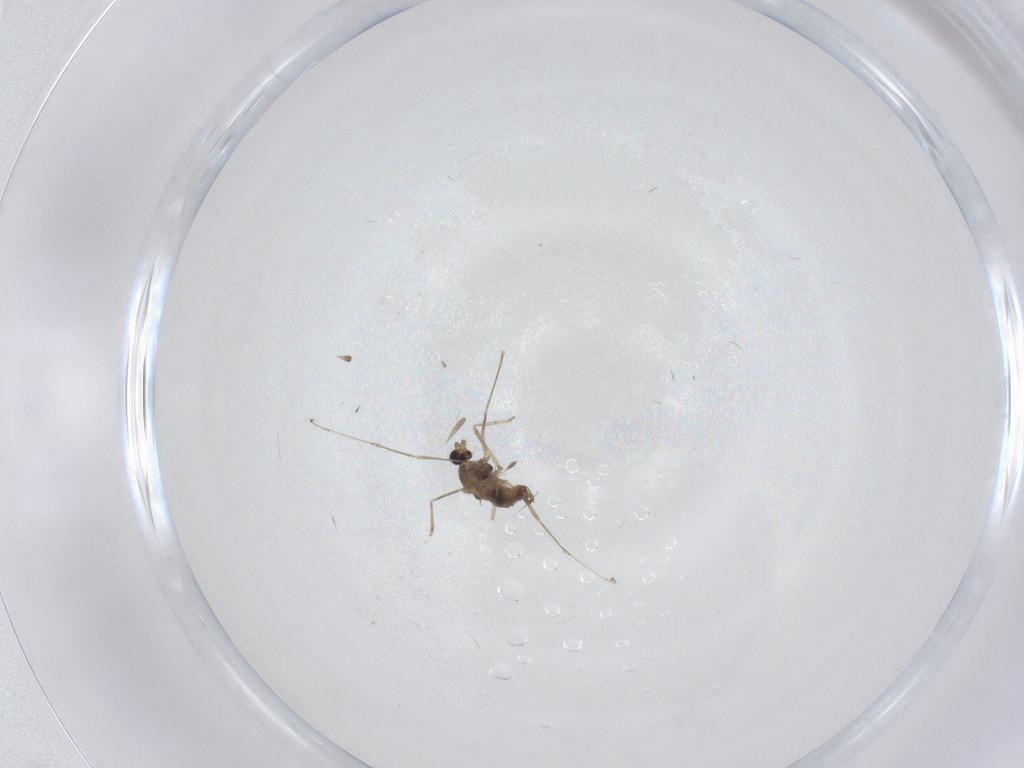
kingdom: Animalia
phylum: Arthropoda
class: Insecta
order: Diptera
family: Cecidomyiidae
